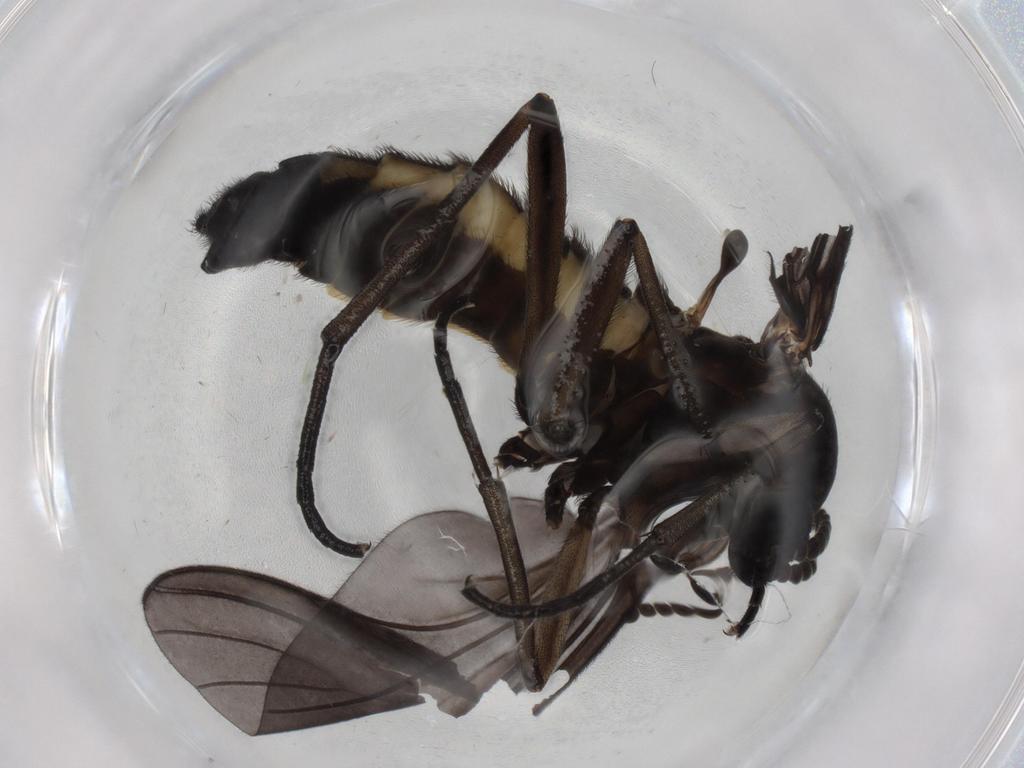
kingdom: Animalia
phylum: Arthropoda
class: Insecta
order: Diptera
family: Sciaridae
